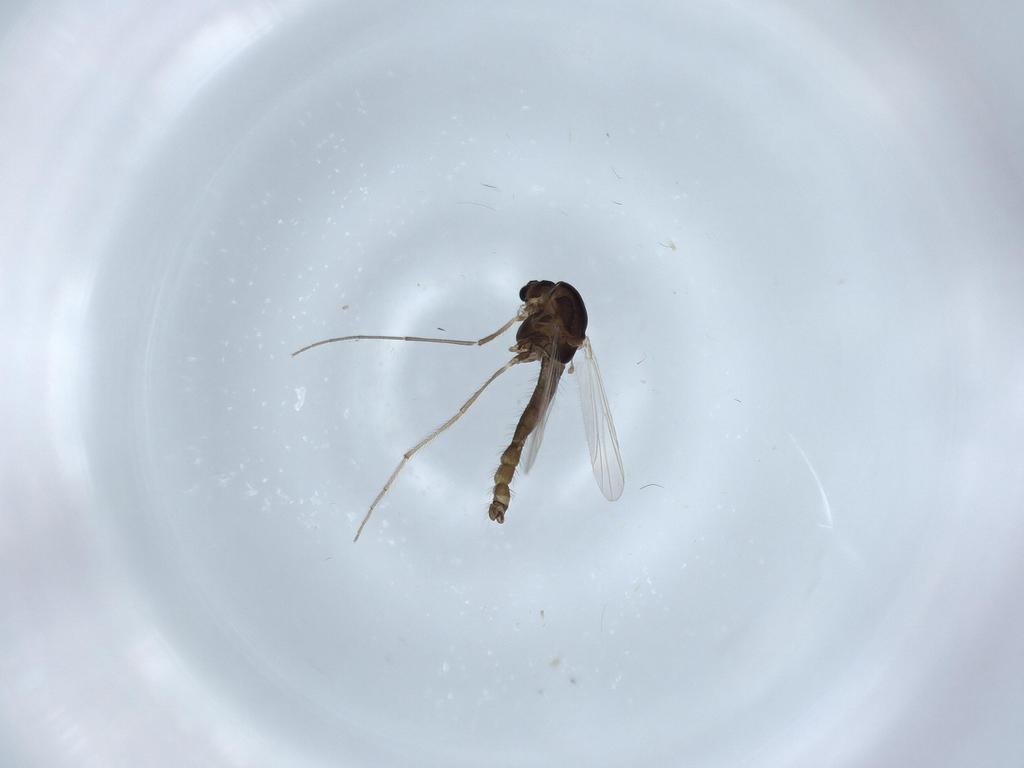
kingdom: Animalia
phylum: Arthropoda
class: Insecta
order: Diptera
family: Chironomidae
